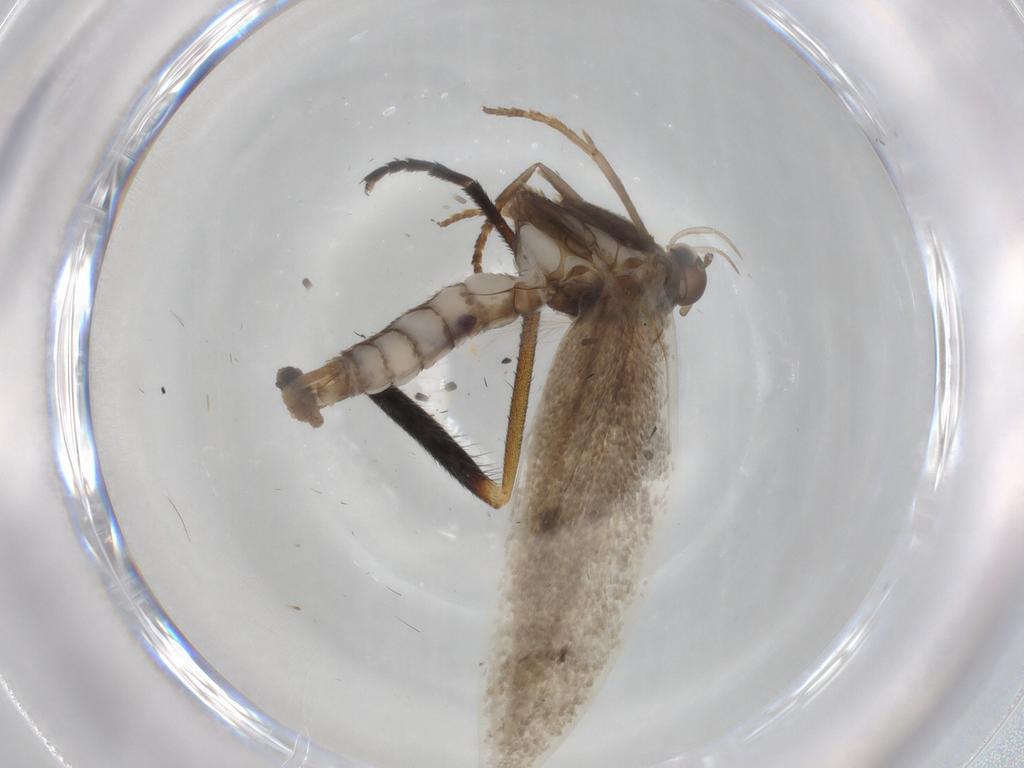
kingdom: Animalia
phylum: Arthropoda
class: Insecta
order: Lepidoptera
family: Elachistidae
